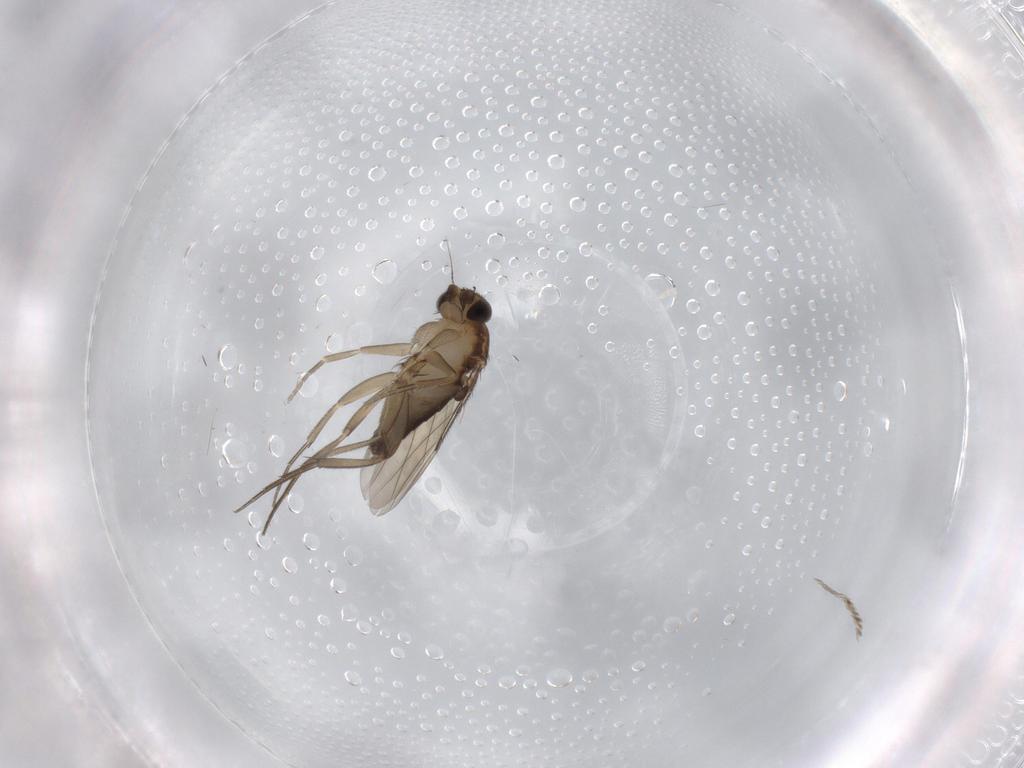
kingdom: Animalia
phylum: Arthropoda
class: Insecta
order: Diptera
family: Phoridae
